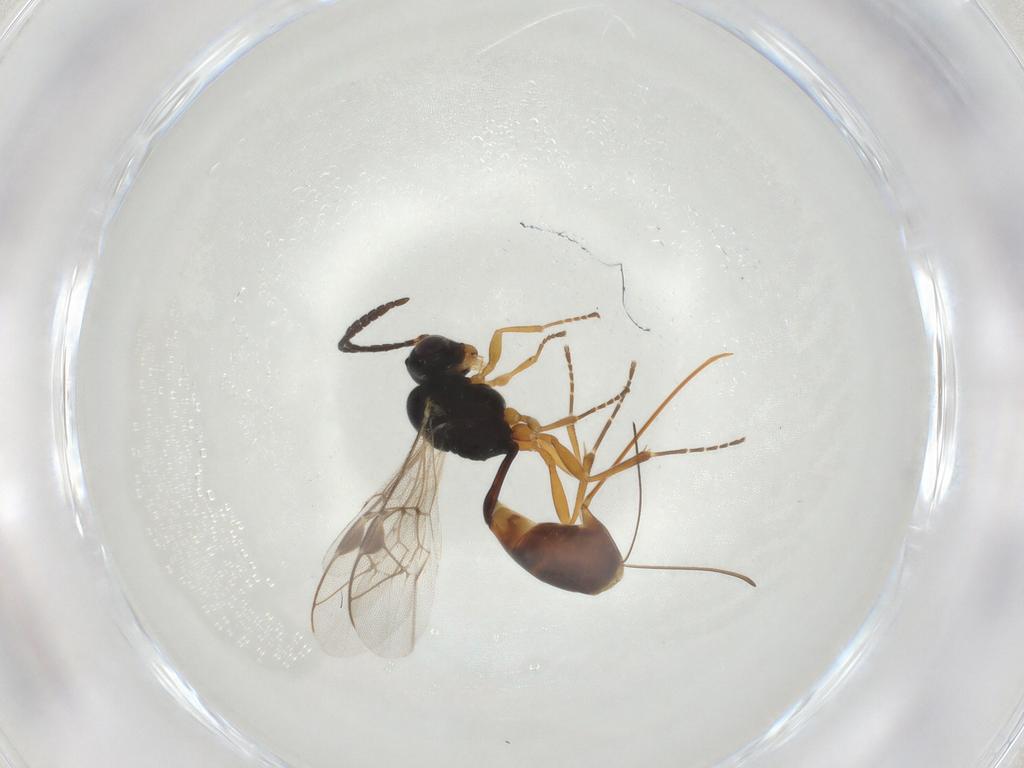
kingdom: Animalia
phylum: Arthropoda
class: Insecta
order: Hymenoptera
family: Ichneumonidae
